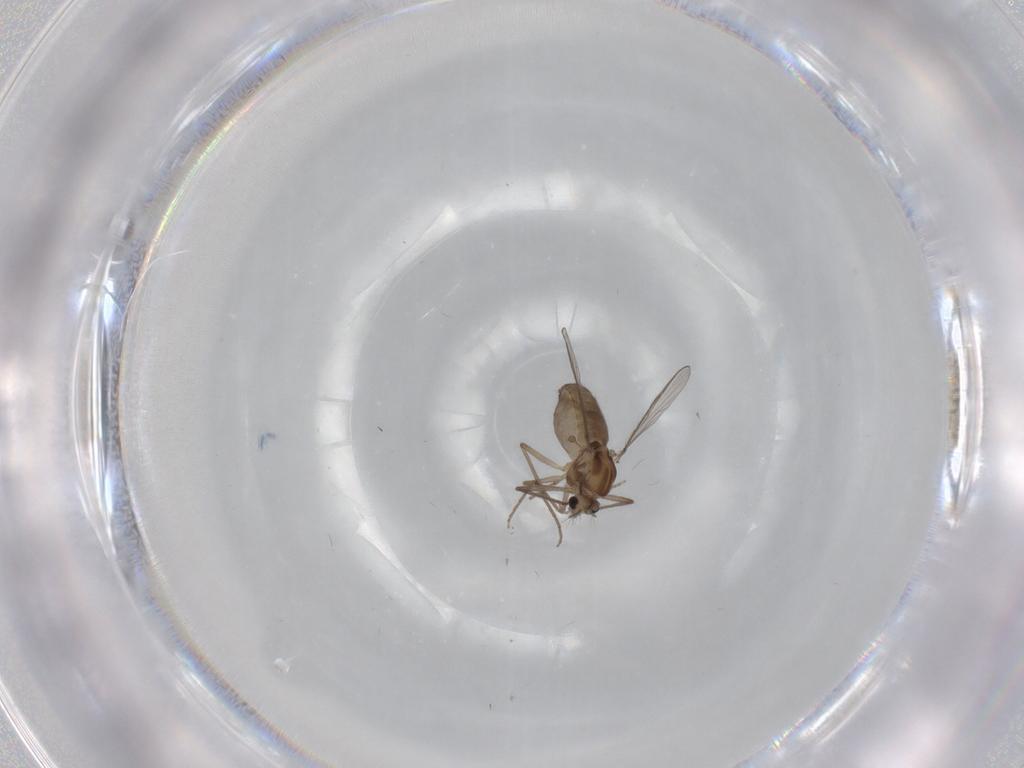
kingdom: Animalia
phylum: Arthropoda
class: Insecta
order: Diptera
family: Chironomidae
